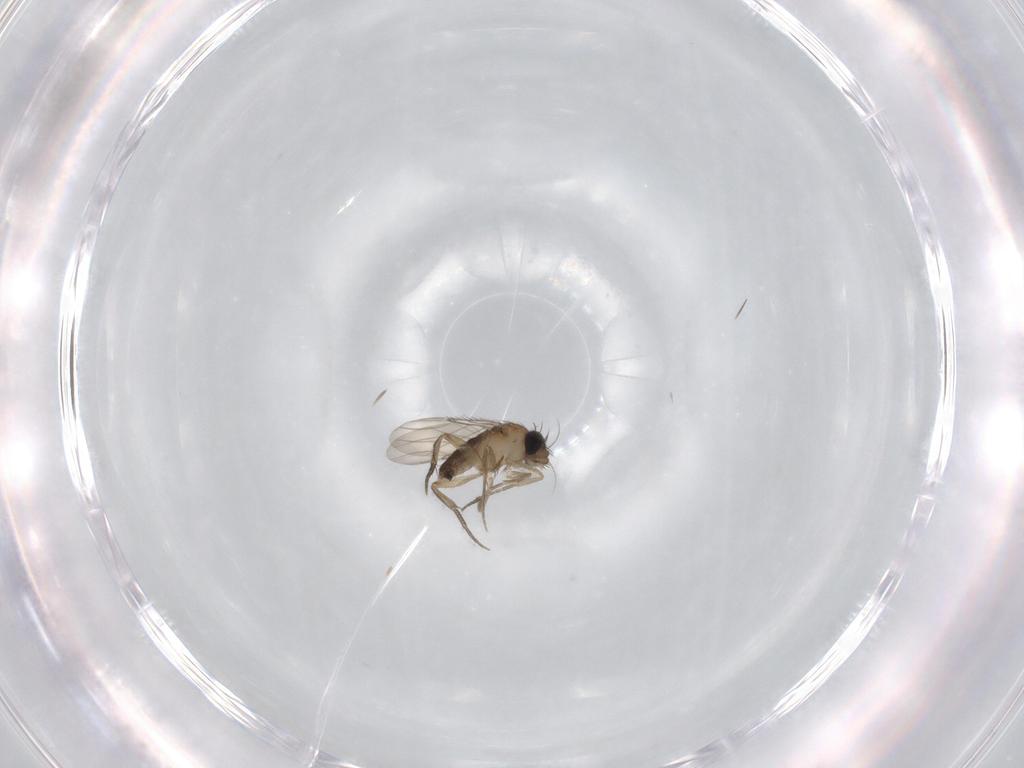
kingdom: Animalia
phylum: Arthropoda
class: Insecta
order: Diptera
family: Phoridae
